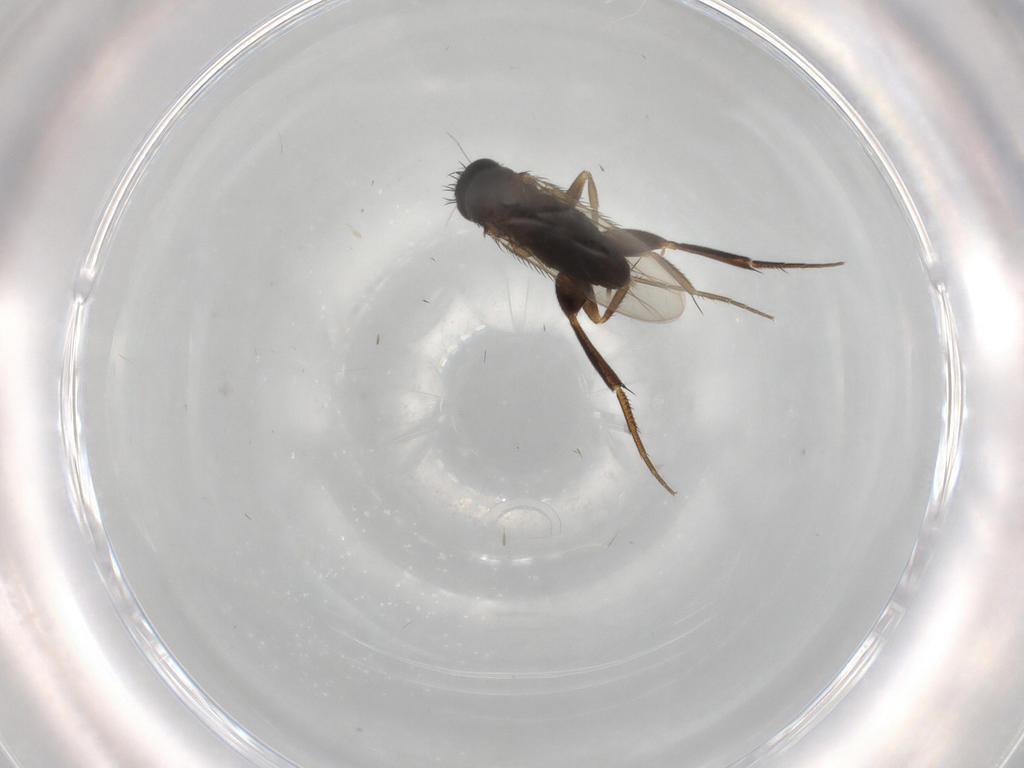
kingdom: Animalia
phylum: Arthropoda
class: Insecta
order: Diptera
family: Phoridae
